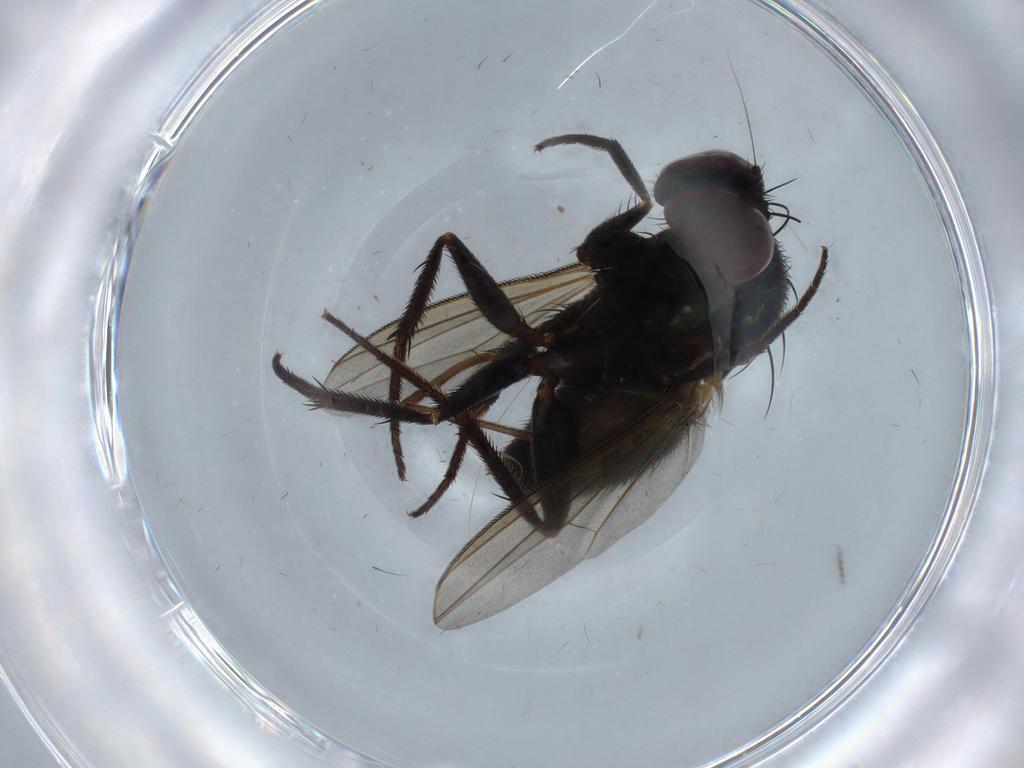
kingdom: Animalia
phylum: Arthropoda
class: Insecta
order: Diptera
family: Dolichopodidae
